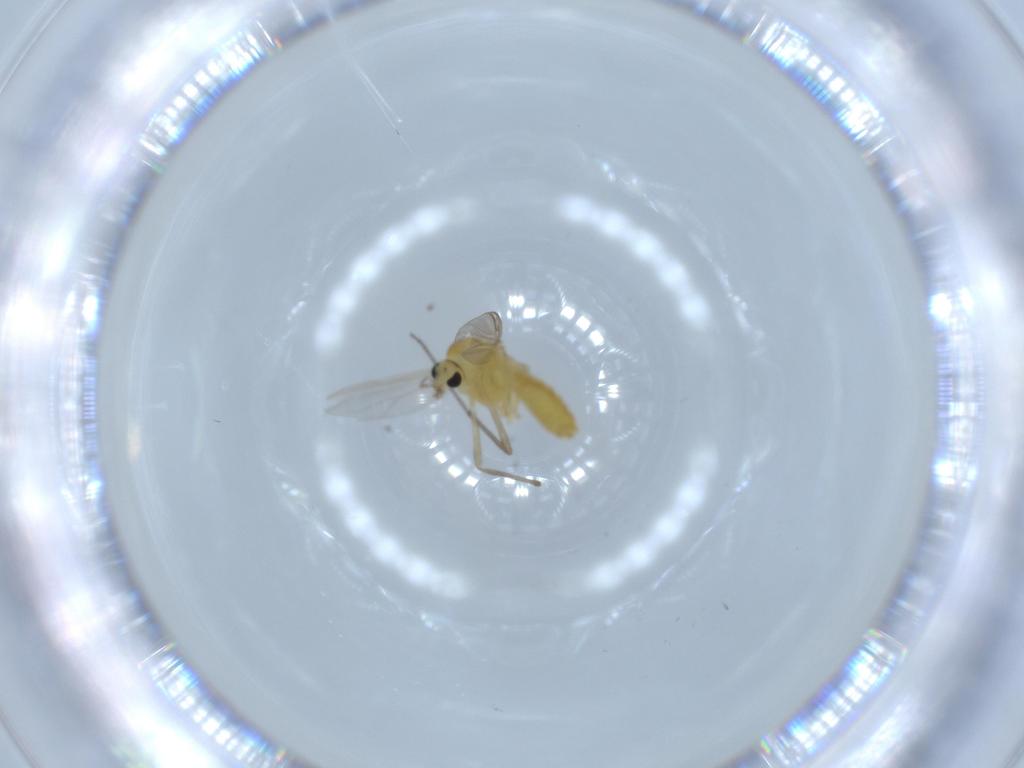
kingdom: Animalia
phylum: Arthropoda
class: Insecta
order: Diptera
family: Chironomidae
